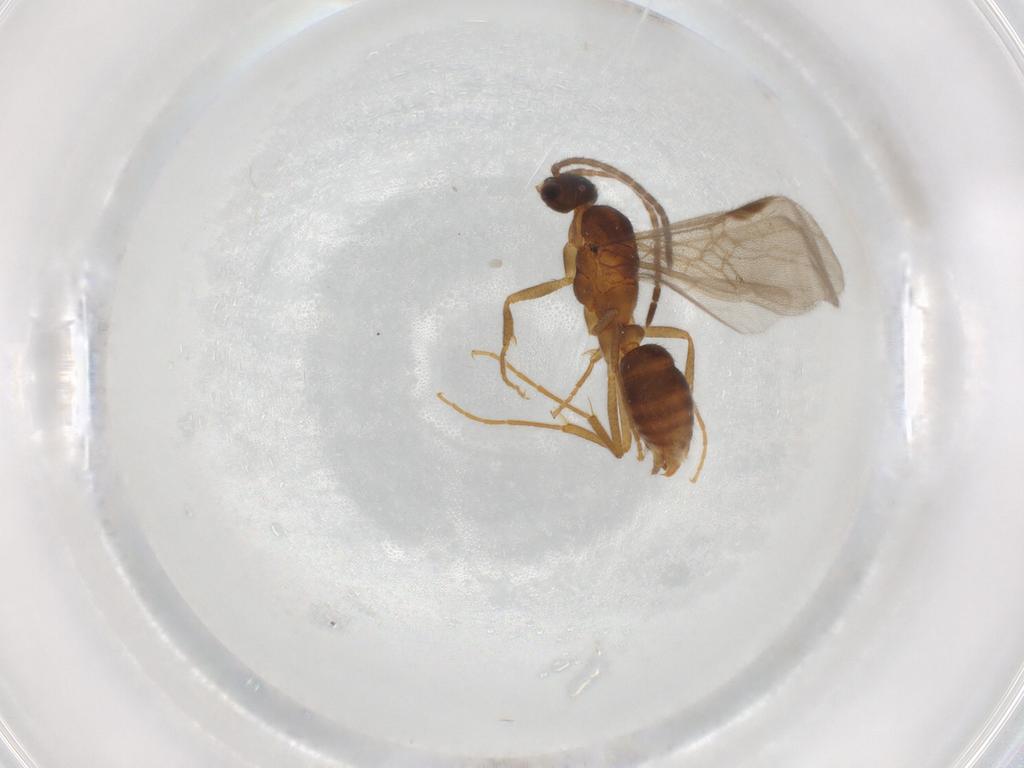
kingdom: Animalia
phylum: Arthropoda
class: Insecta
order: Hymenoptera
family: Formicidae
